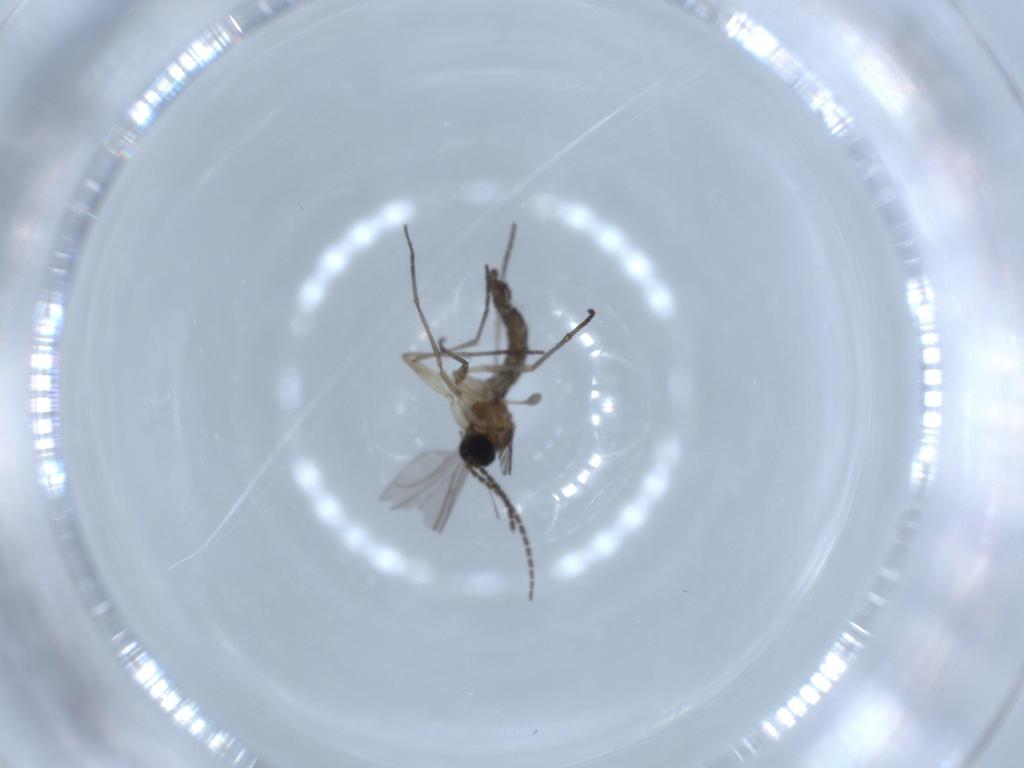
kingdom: Animalia
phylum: Arthropoda
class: Insecta
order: Diptera
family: Sciaridae
